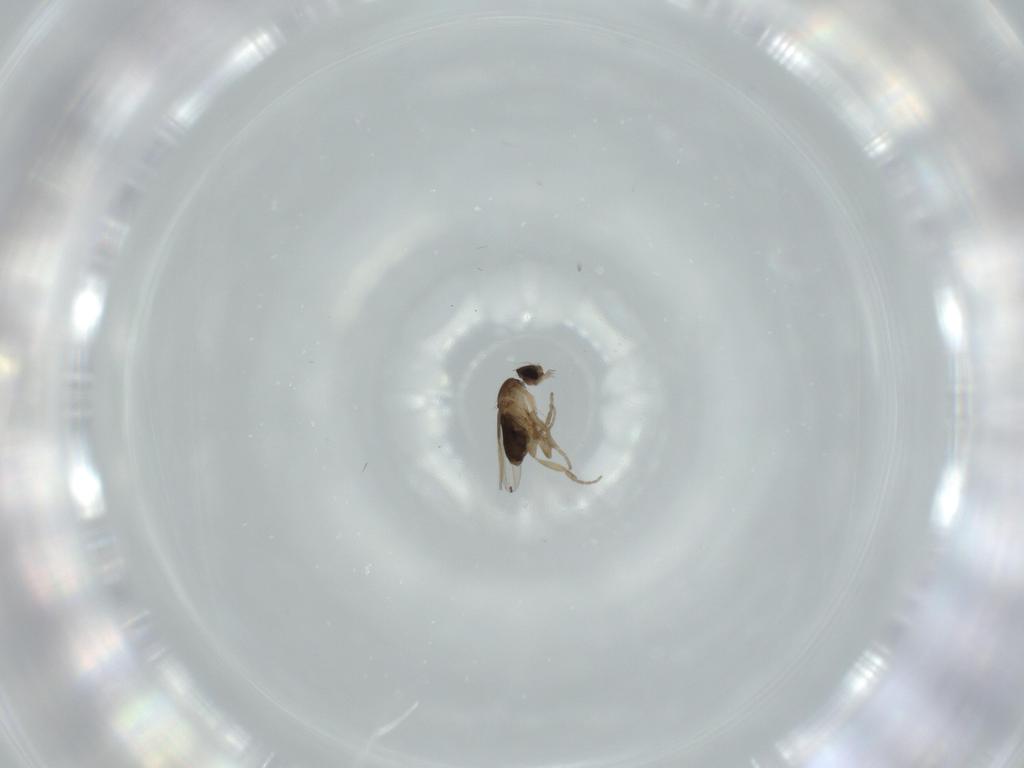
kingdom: Animalia
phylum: Arthropoda
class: Insecta
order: Diptera
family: Phoridae
